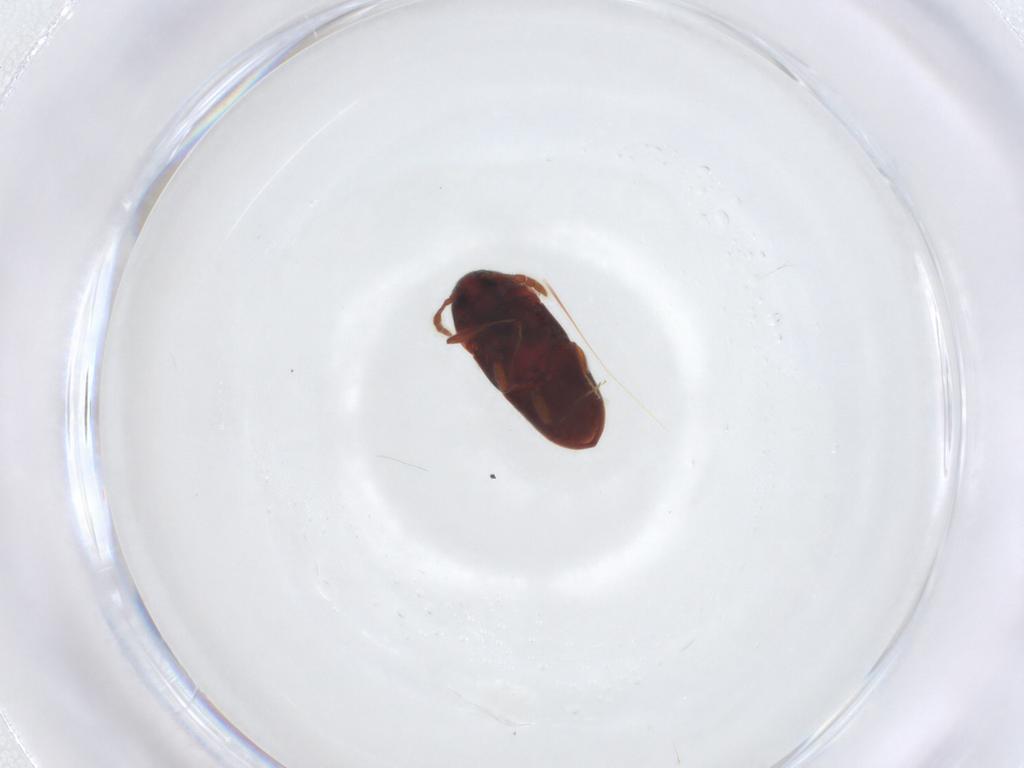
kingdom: Animalia
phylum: Arthropoda
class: Insecta
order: Coleoptera
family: Throscidae
